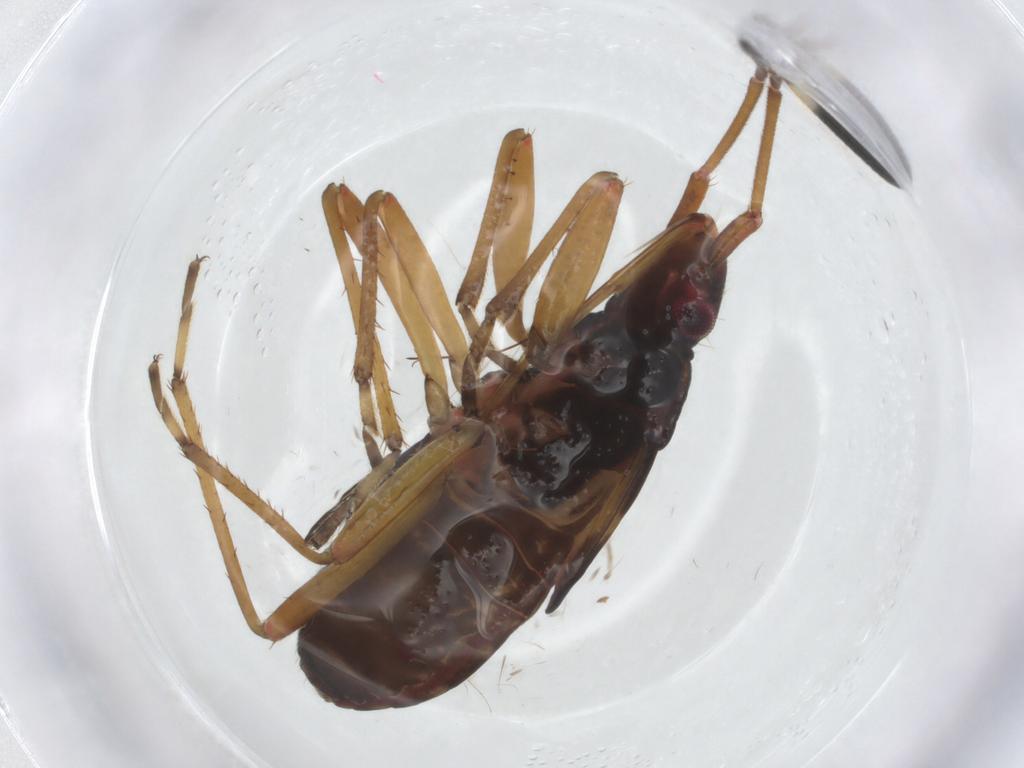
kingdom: Animalia
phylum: Arthropoda
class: Insecta
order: Hemiptera
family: Rhyparochromidae
